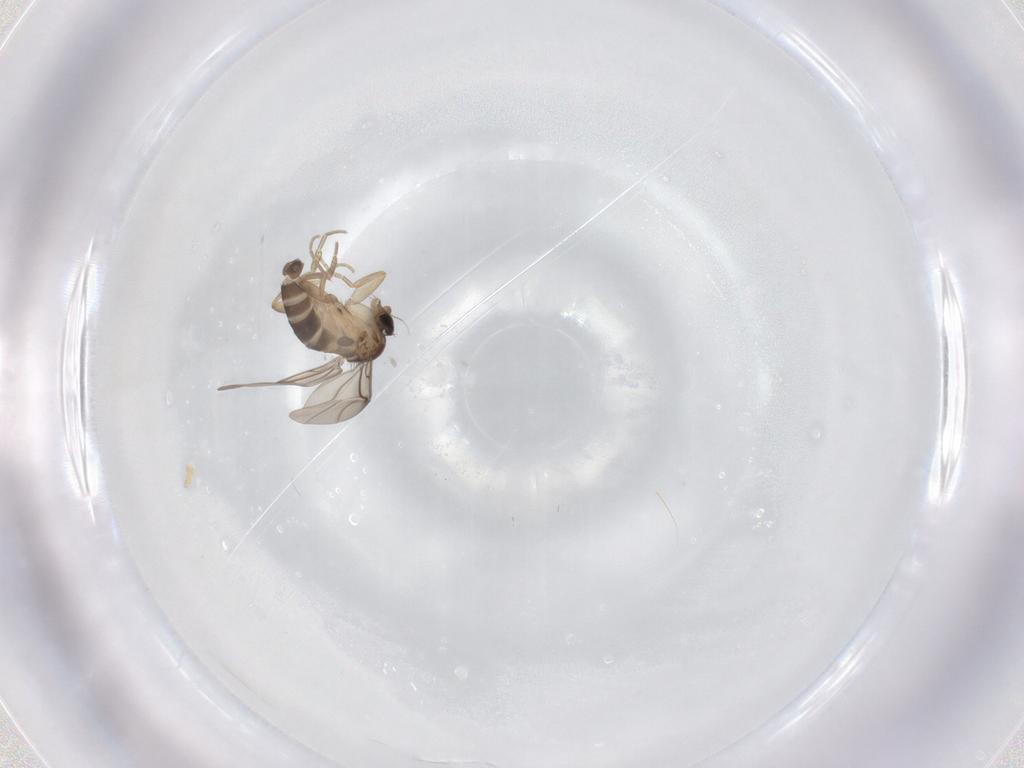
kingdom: Animalia
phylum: Arthropoda
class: Insecta
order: Diptera
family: Phoridae
